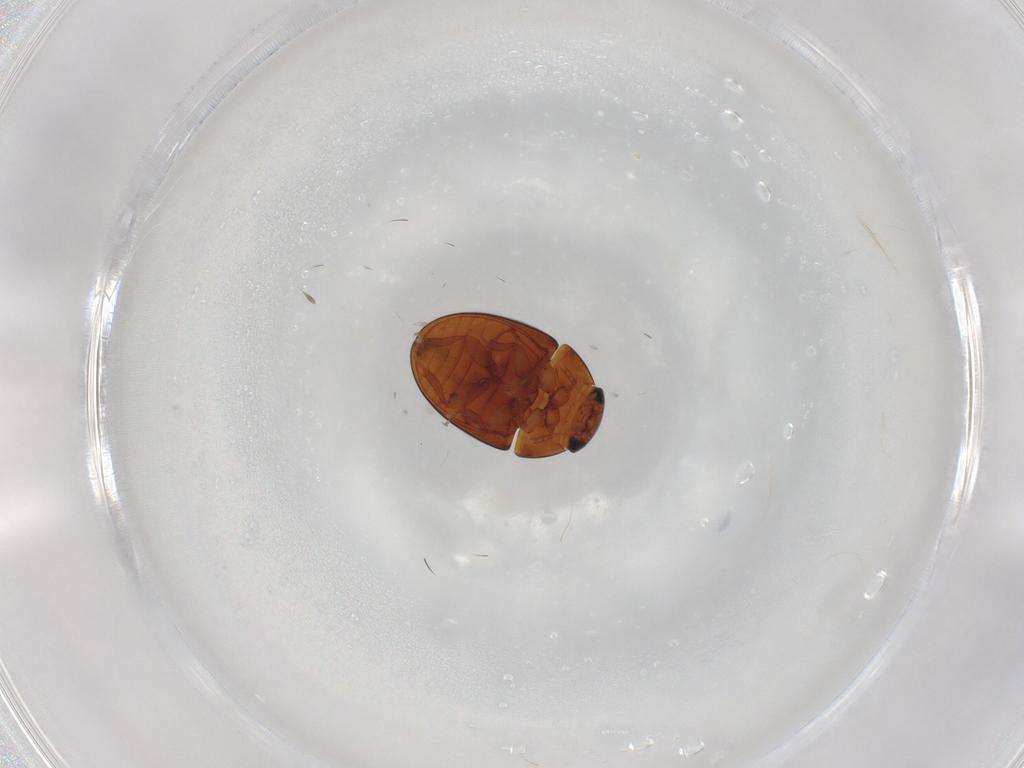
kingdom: Animalia
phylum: Arthropoda
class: Insecta
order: Coleoptera
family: Phalacridae
